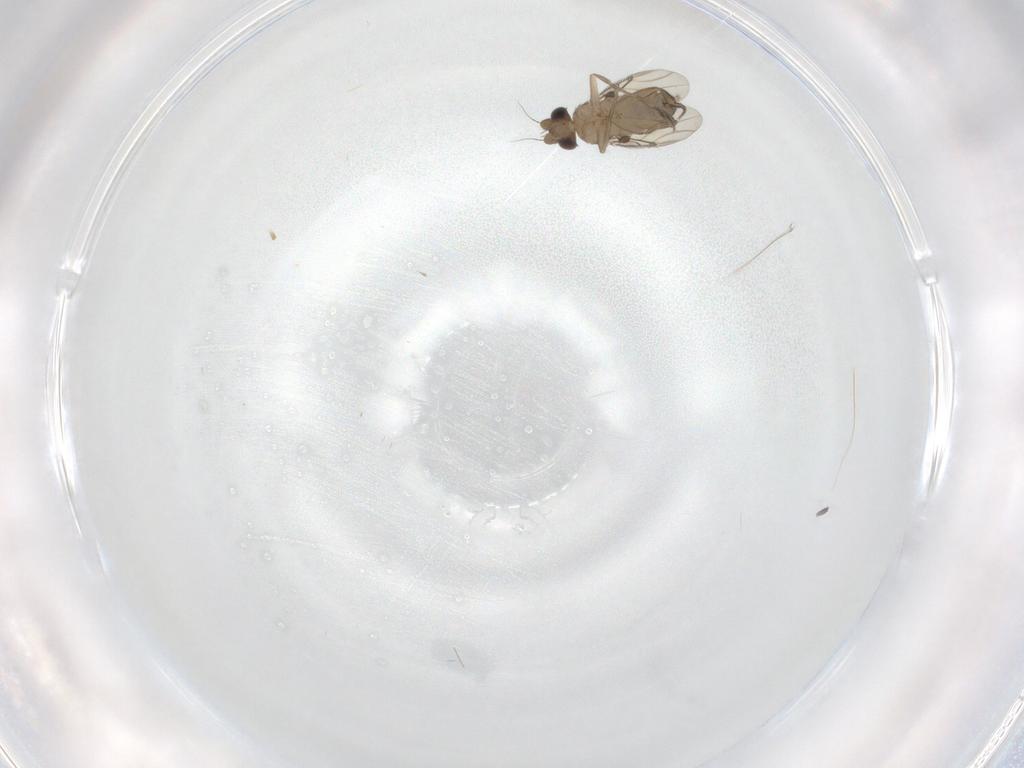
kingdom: Animalia
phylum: Arthropoda
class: Insecta
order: Diptera
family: Phoridae
